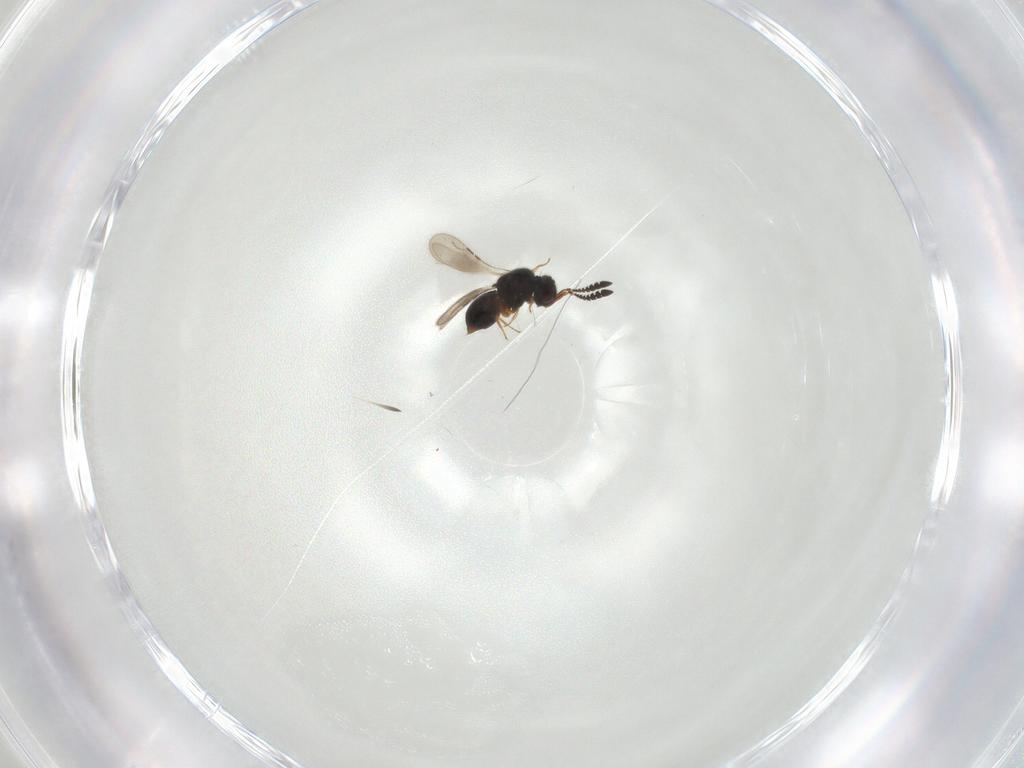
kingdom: Animalia
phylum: Arthropoda
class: Insecta
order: Hymenoptera
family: Ceraphronidae
